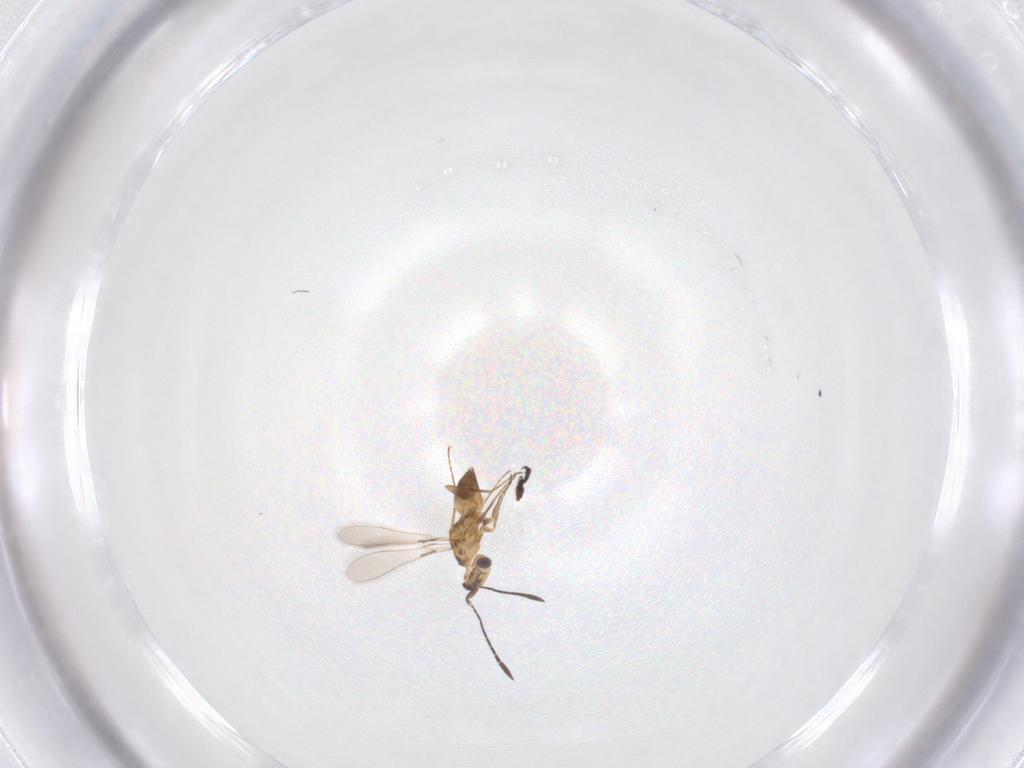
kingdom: Animalia
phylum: Arthropoda
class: Insecta
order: Hymenoptera
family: Mymaridae
